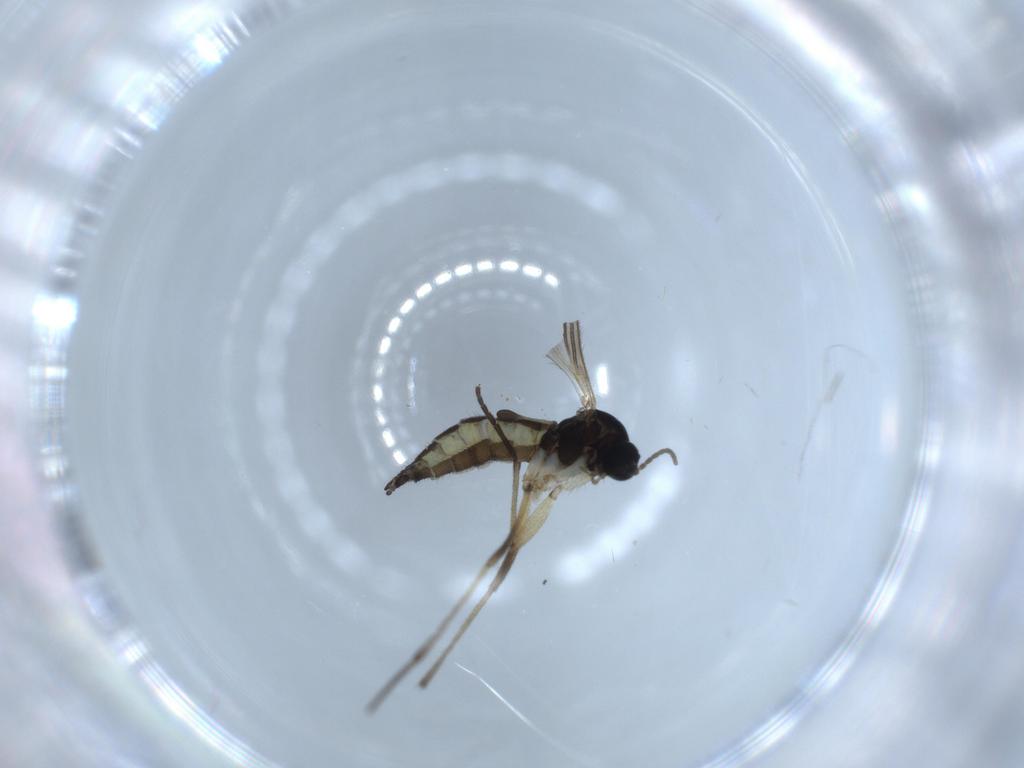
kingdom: Animalia
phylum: Arthropoda
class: Insecta
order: Diptera
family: Sciaridae
